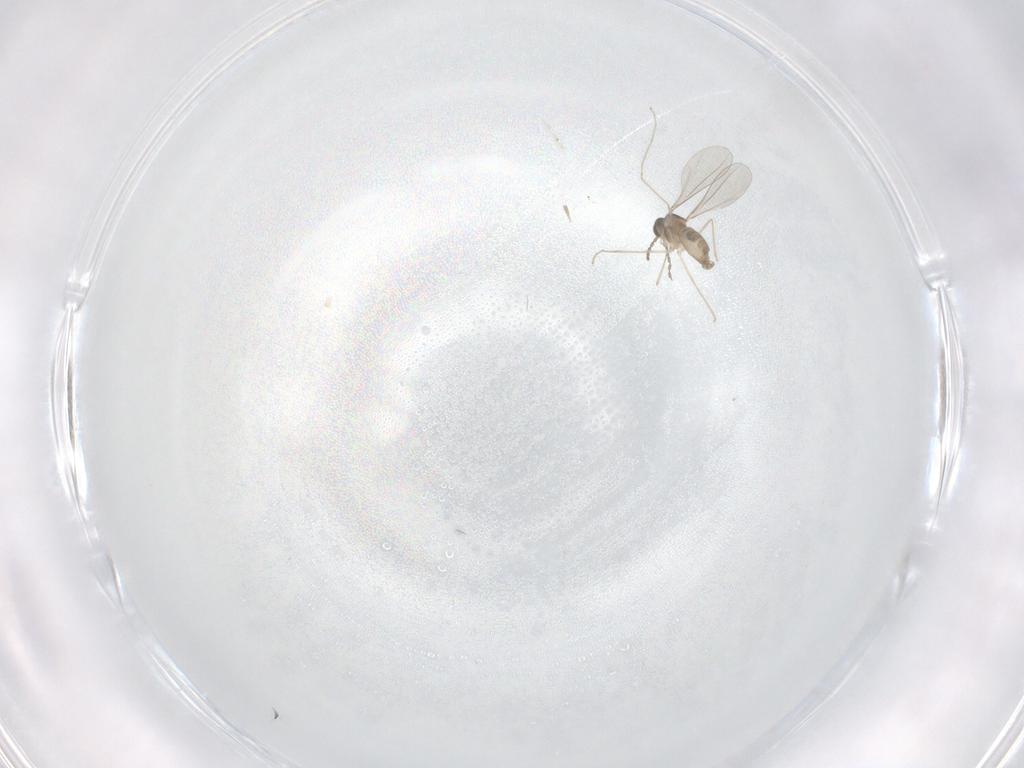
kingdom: Animalia
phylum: Arthropoda
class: Insecta
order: Diptera
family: Cecidomyiidae
